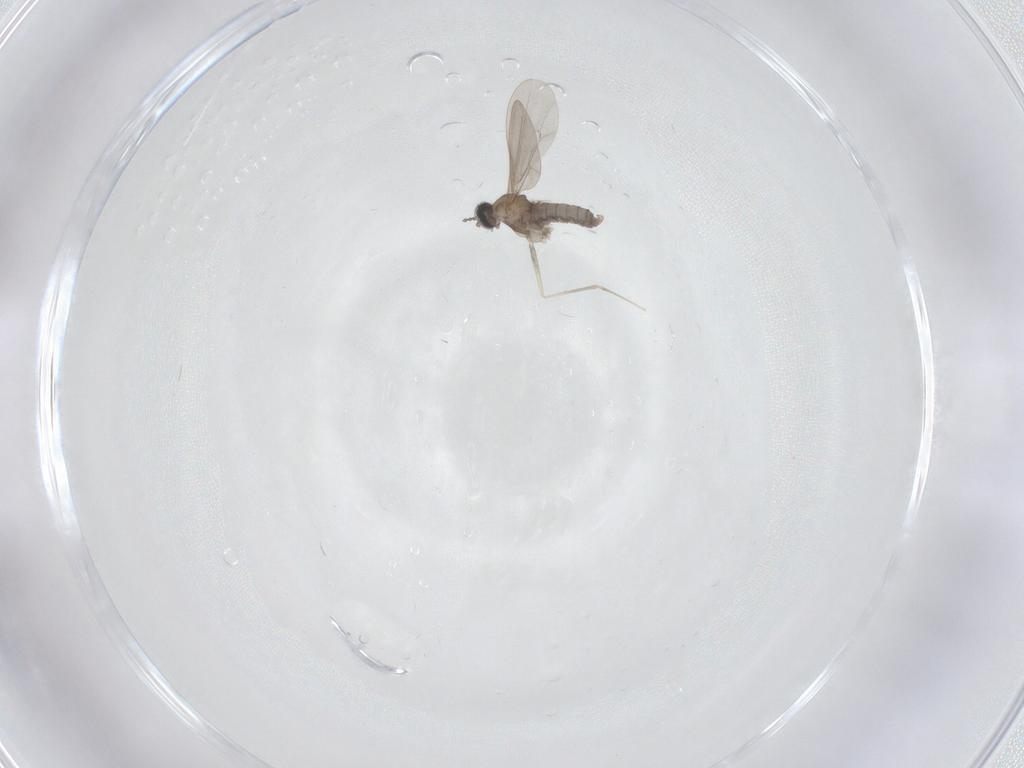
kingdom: Animalia
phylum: Arthropoda
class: Insecta
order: Diptera
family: Cecidomyiidae
